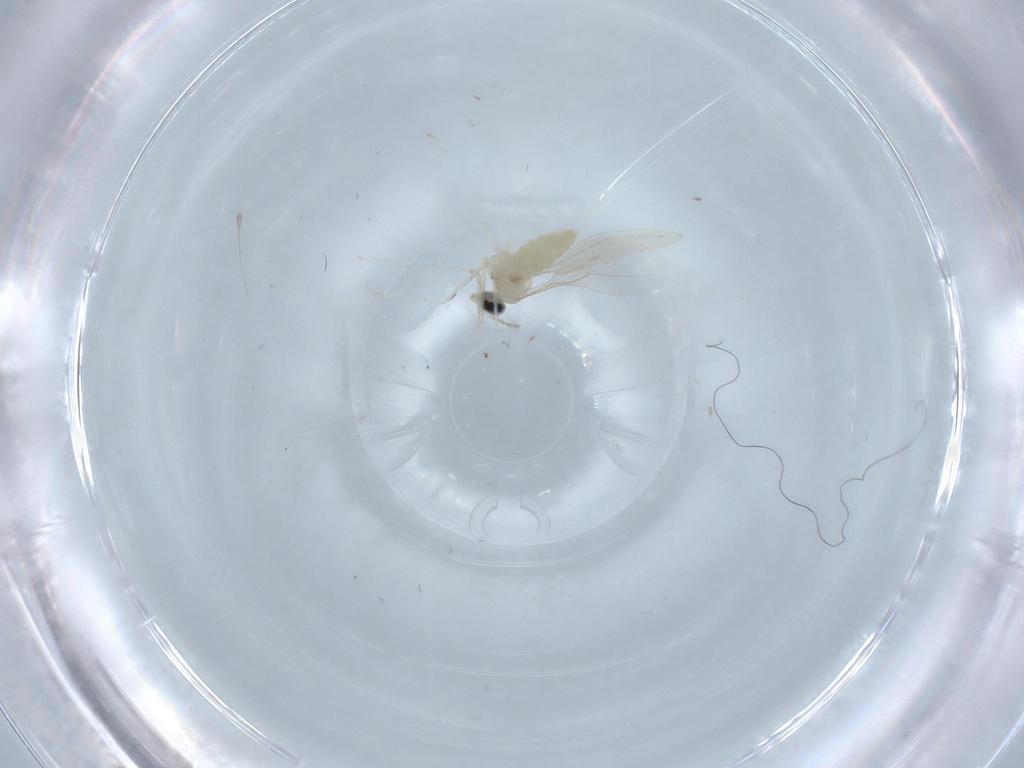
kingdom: Animalia
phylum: Arthropoda
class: Insecta
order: Diptera
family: Cecidomyiidae
